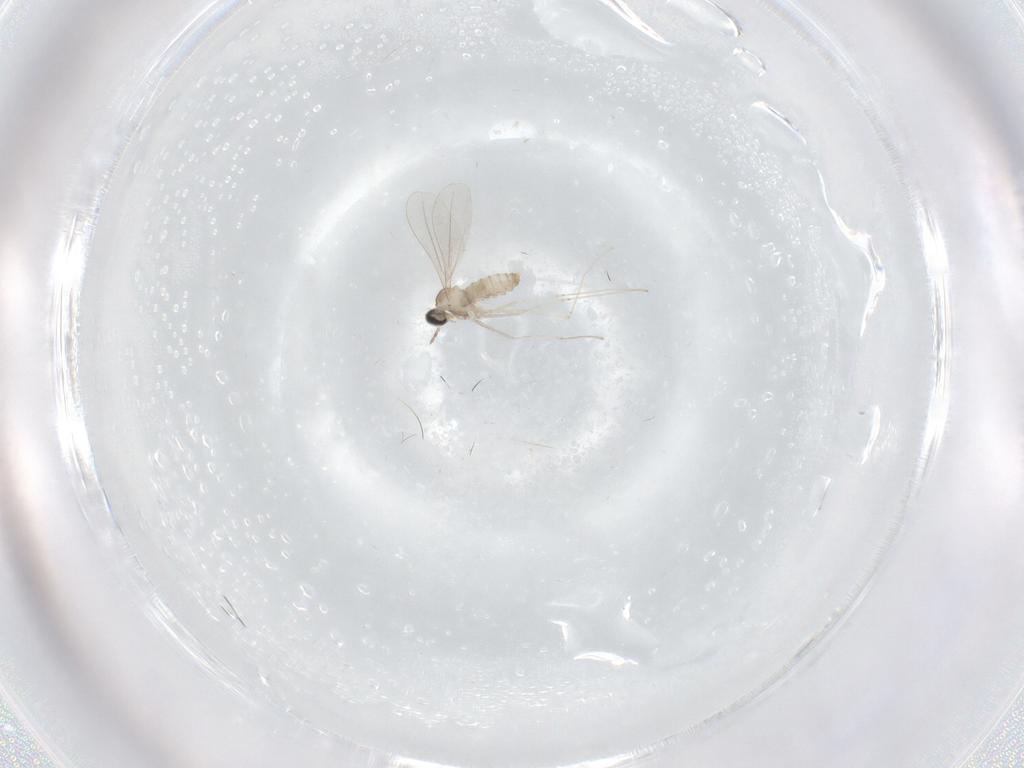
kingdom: Animalia
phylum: Arthropoda
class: Insecta
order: Diptera
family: Cecidomyiidae
